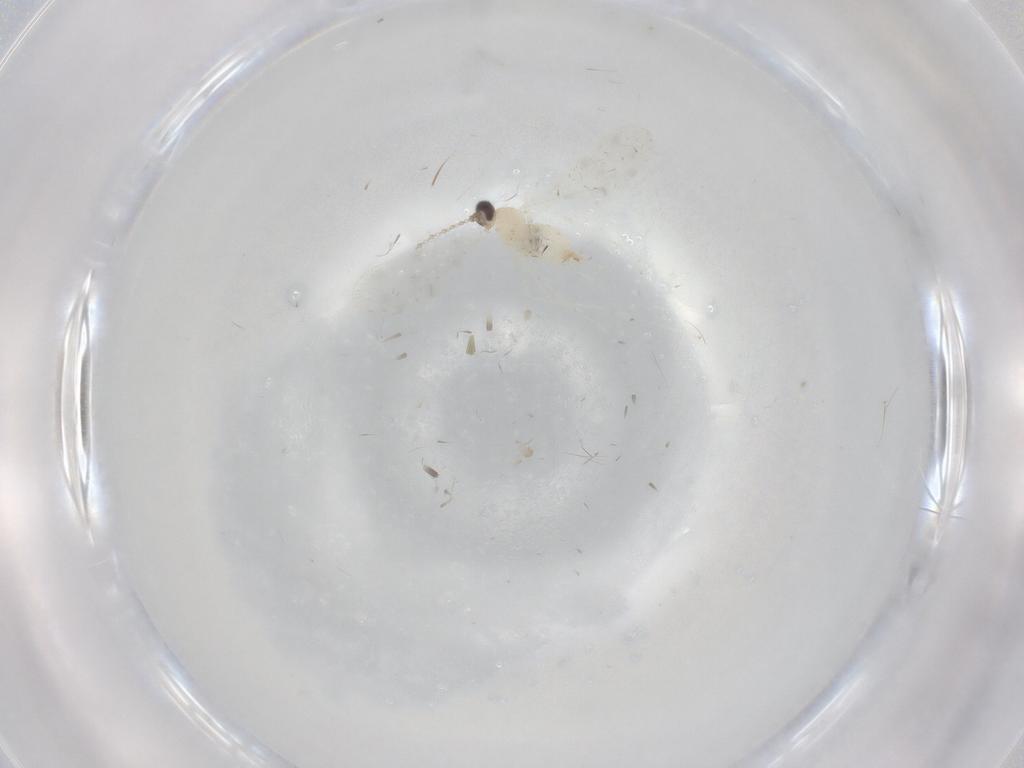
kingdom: Animalia
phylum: Arthropoda
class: Insecta
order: Diptera
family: Cecidomyiidae
